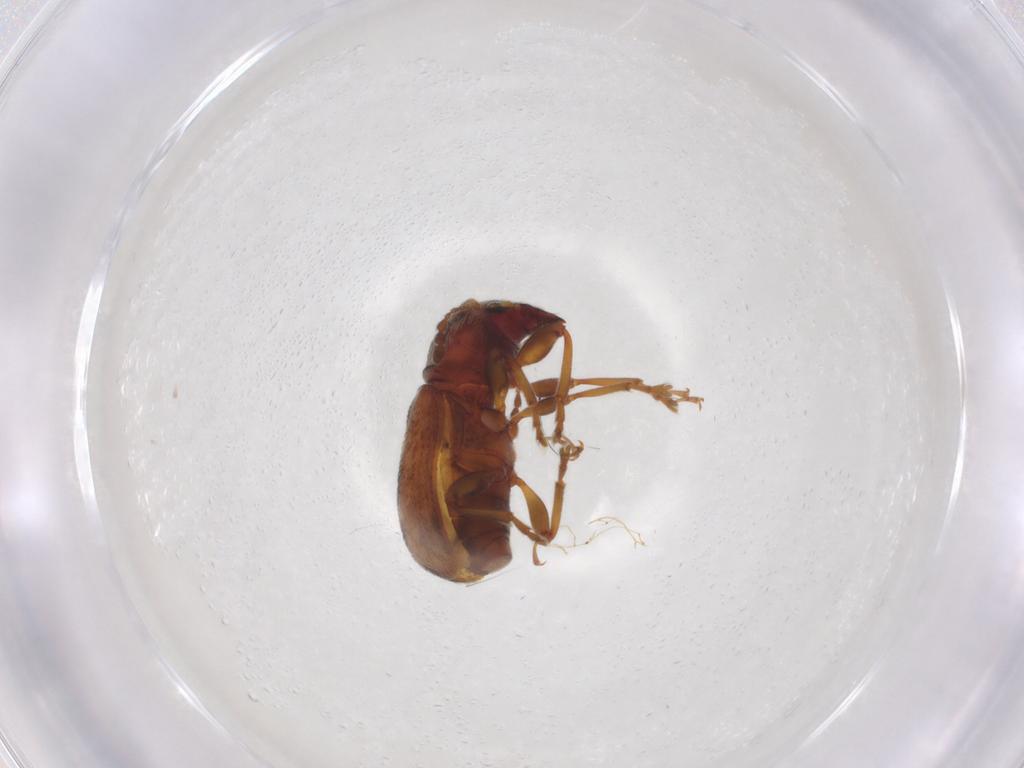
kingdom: Animalia
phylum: Arthropoda
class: Insecta
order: Coleoptera
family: Anthribidae
